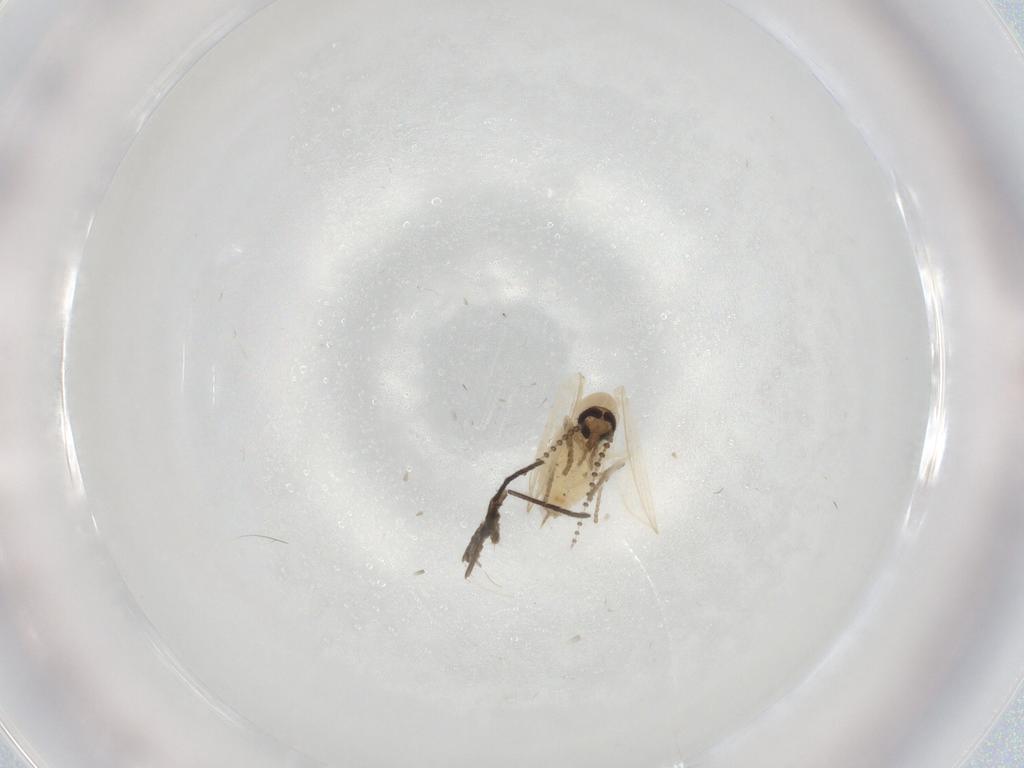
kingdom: Animalia
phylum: Arthropoda
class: Insecta
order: Diptera
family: Psychodidae
